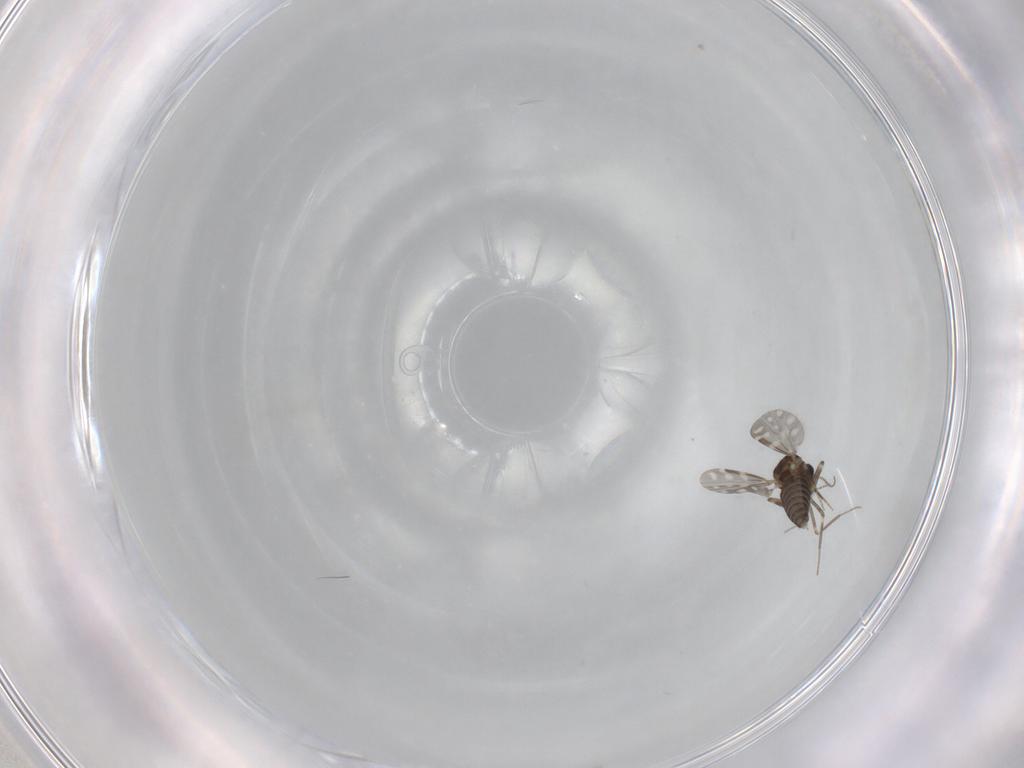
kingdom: Animalia
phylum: Arthropoda
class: Insecta
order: Diptera
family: Ceratopogonidae
